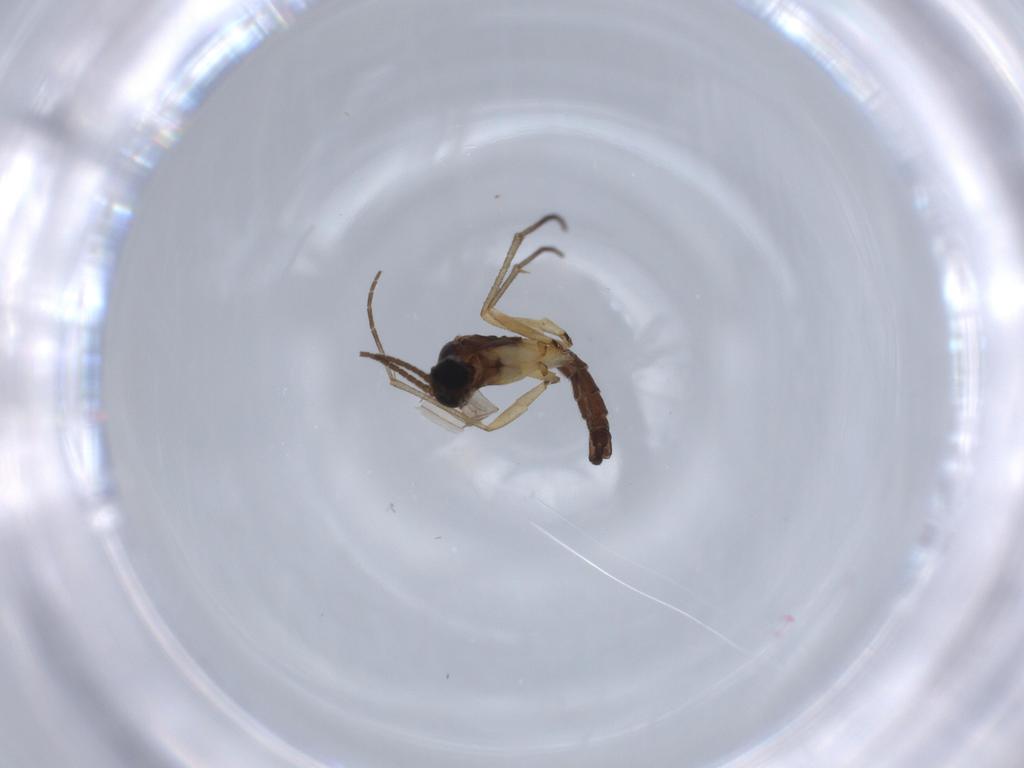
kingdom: Animalia
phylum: Arthropoda
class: Insecta
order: Diptera
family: Sciaridae
